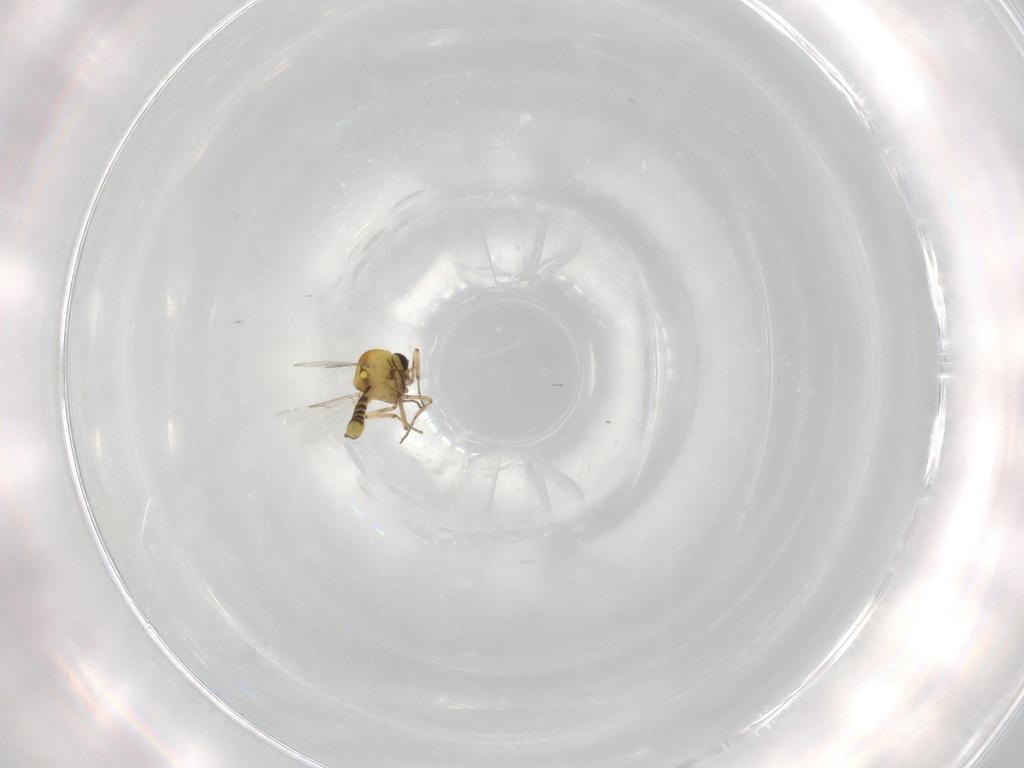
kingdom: Animalia
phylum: Arthropoda
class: Insecta
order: Diptera
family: Ceratopogonidae
